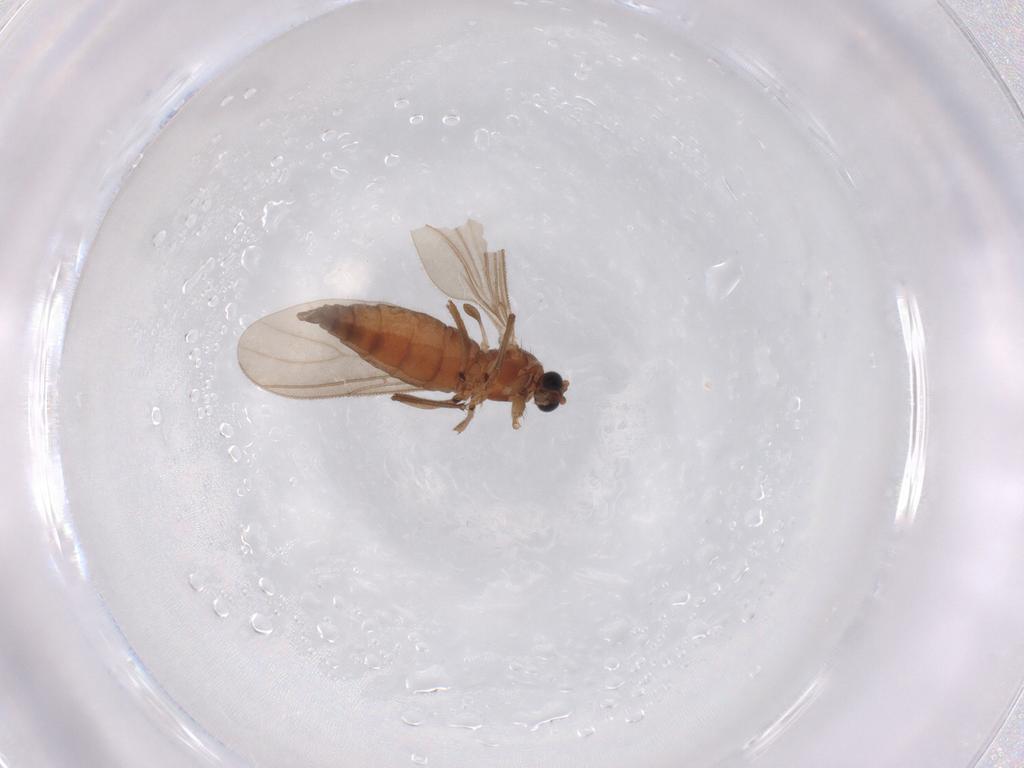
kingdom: Animalia
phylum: Arthropoda
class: Insecta
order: Diptera
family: Sciaridae
